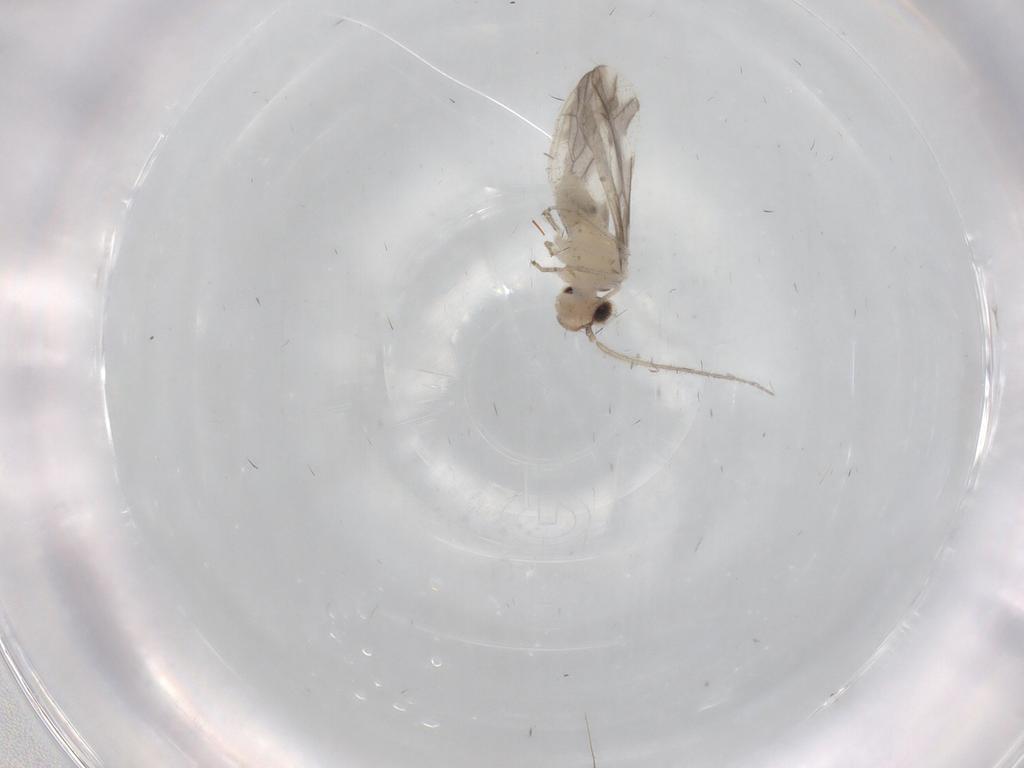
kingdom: Animalia
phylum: Arthropoda
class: Insecta
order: Psocodea
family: Caeciliusidae
